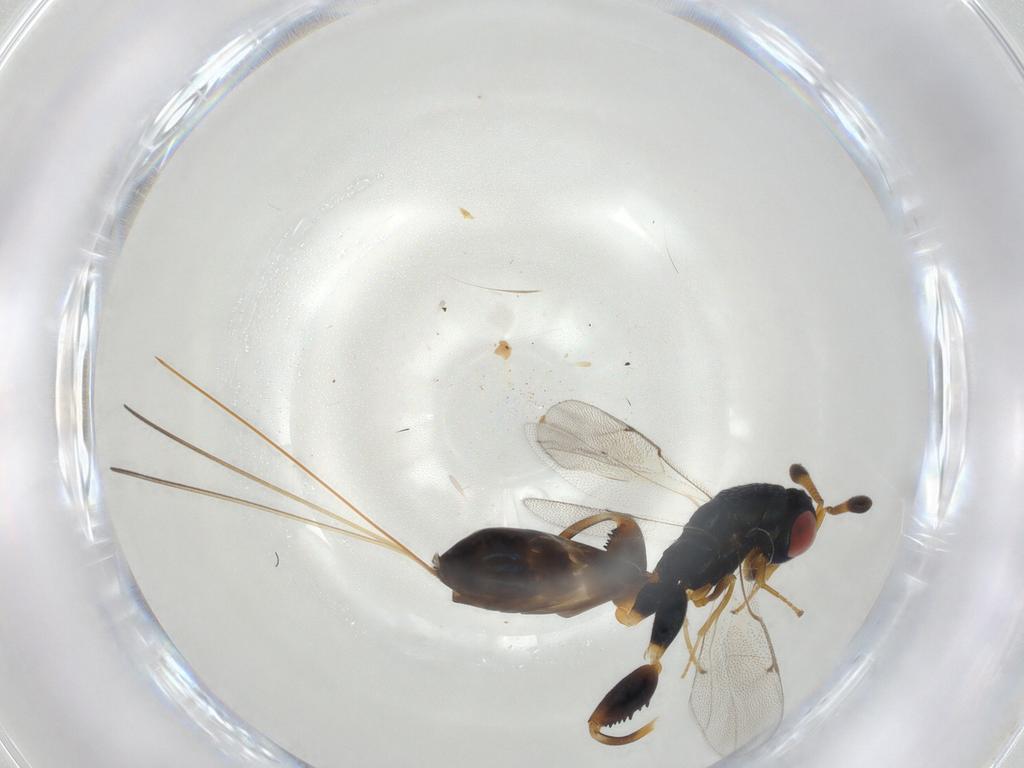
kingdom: Animalia
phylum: Arthropoda
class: Insecta
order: Hymenoptera
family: Torymidae
